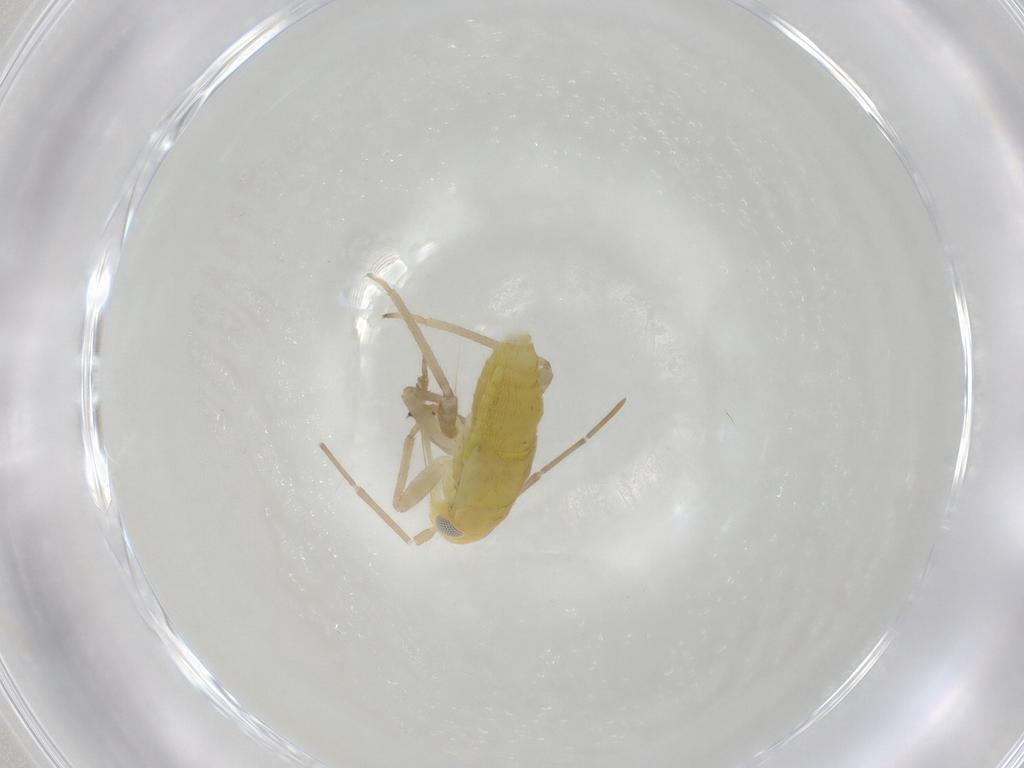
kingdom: Animalia
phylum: Arthropoda
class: Insecta
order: Hemiptera
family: Miridae
